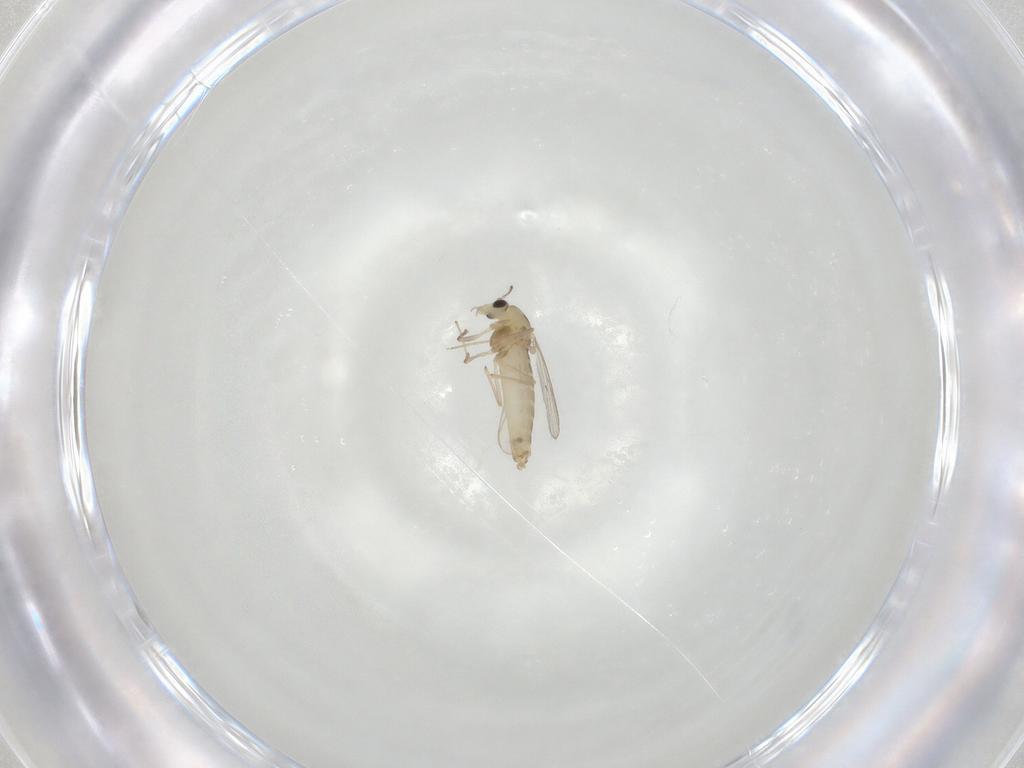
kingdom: Animalia
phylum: Arthropoda
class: Insecta
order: Diptera
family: Chironomidae
